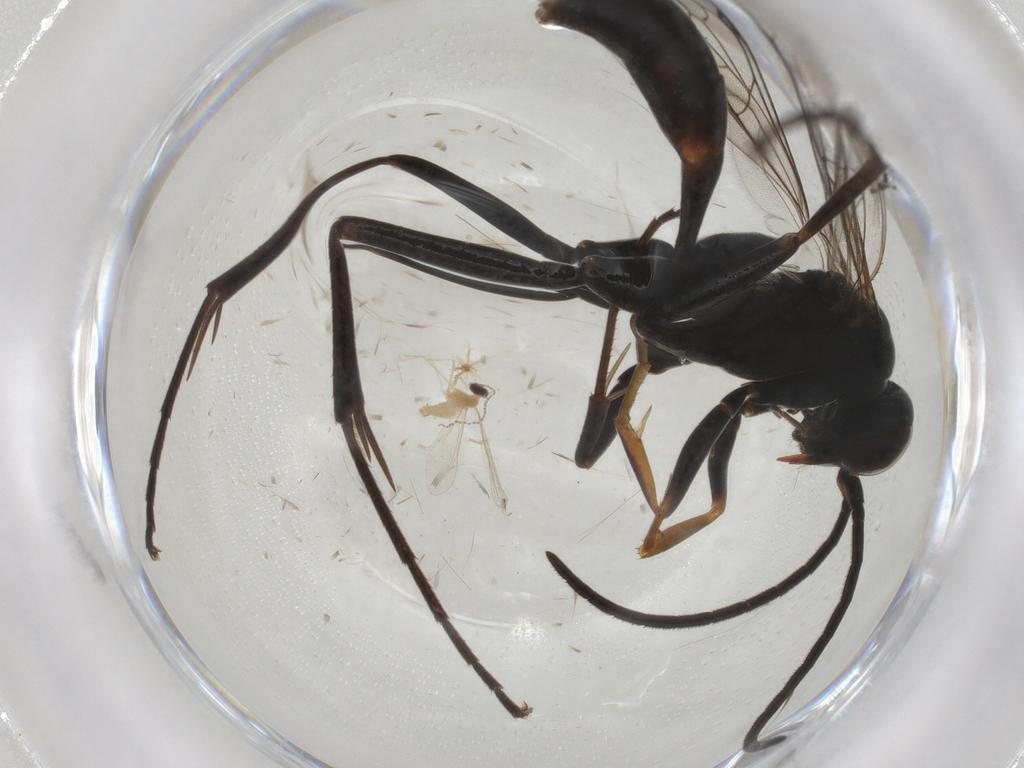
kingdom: Animalia
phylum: Arthropoda
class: Insecta
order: Hymenoptera
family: Pompilidae
